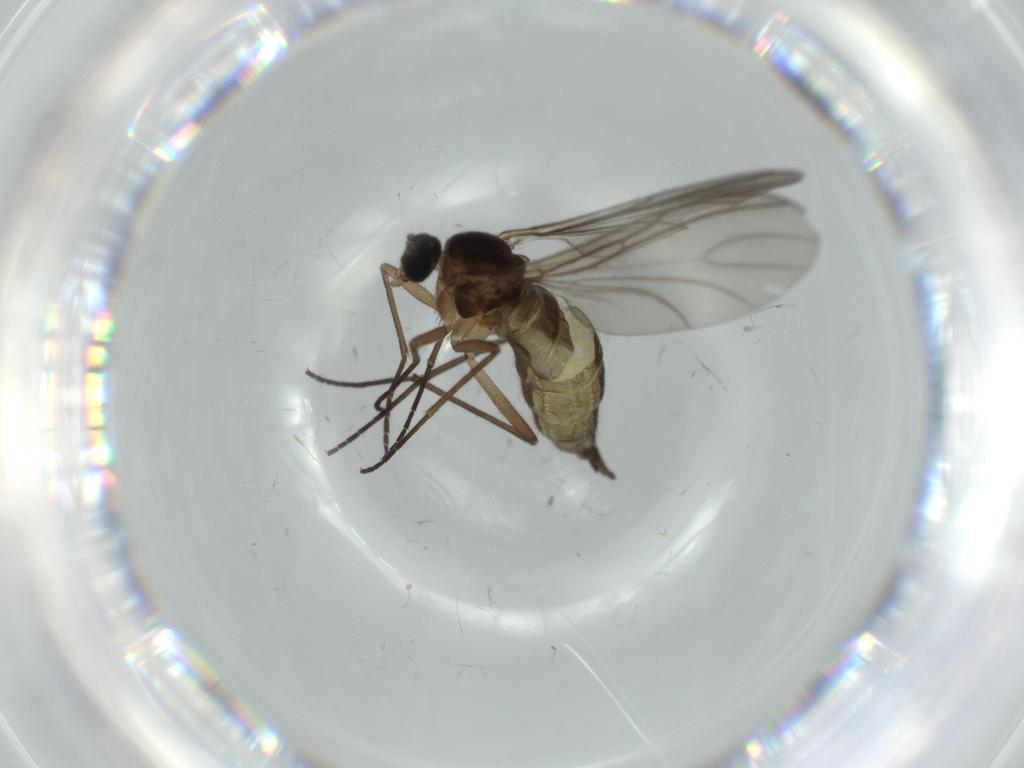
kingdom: Animalia
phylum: Arthropoda
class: Insecta
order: Diptera
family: Sciaridae
